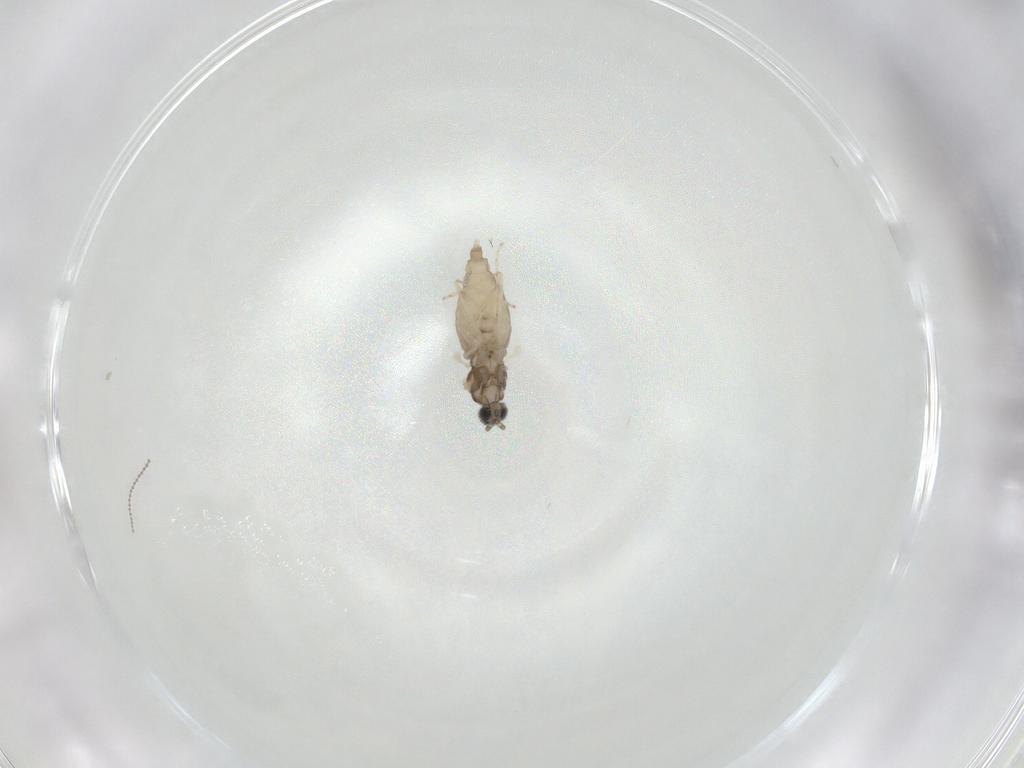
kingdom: Animalia
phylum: Arthropoda
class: Insecta
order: Diptera
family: Cecidomyiidae
